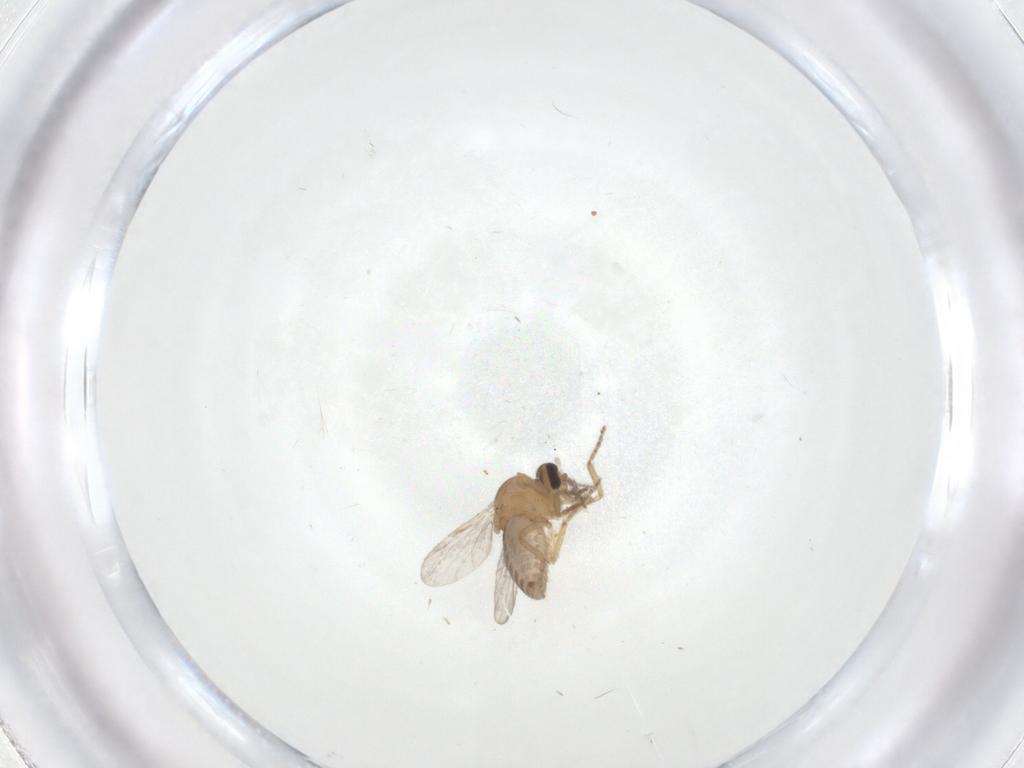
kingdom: Animalia
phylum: Arthropoda
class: Insecta
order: Diptera
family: Ceratopogonidae
